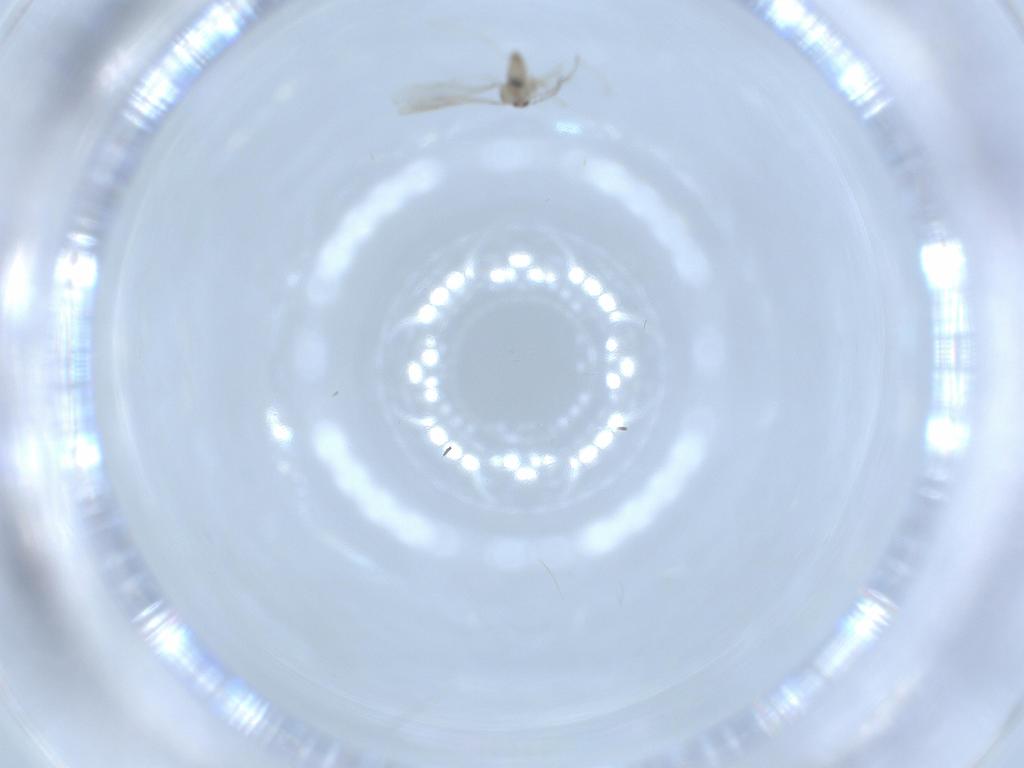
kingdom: Animalia
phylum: Arthropoda
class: Insecta
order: Diptera
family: Cecidomyiidae
